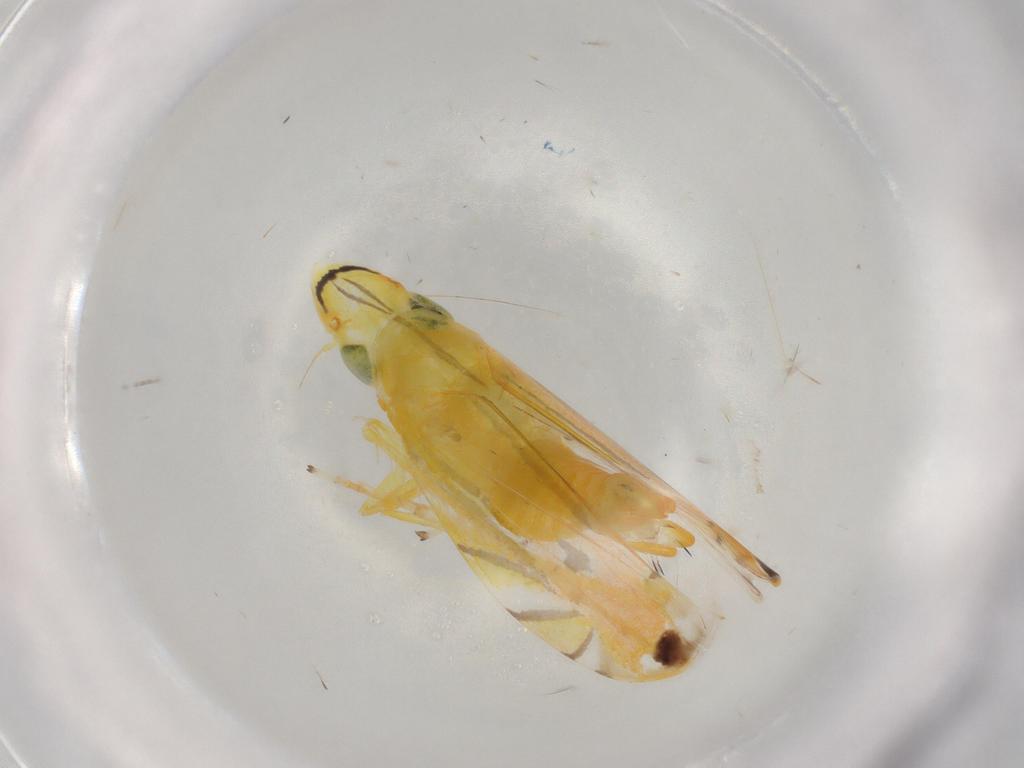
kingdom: Animalia
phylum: Arthropoda
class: Insecta
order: Hemiptera
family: Cicadellidae
